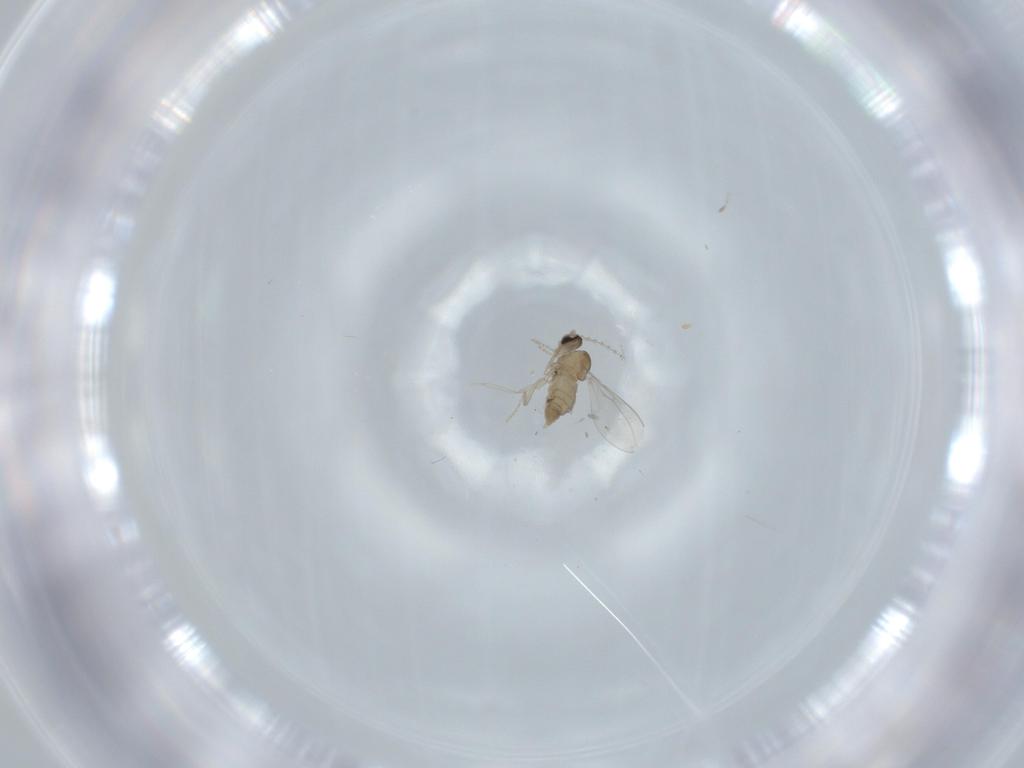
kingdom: Animalia
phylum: Arthropoda
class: Insecta
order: Diptera
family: Cecidomyiidae
